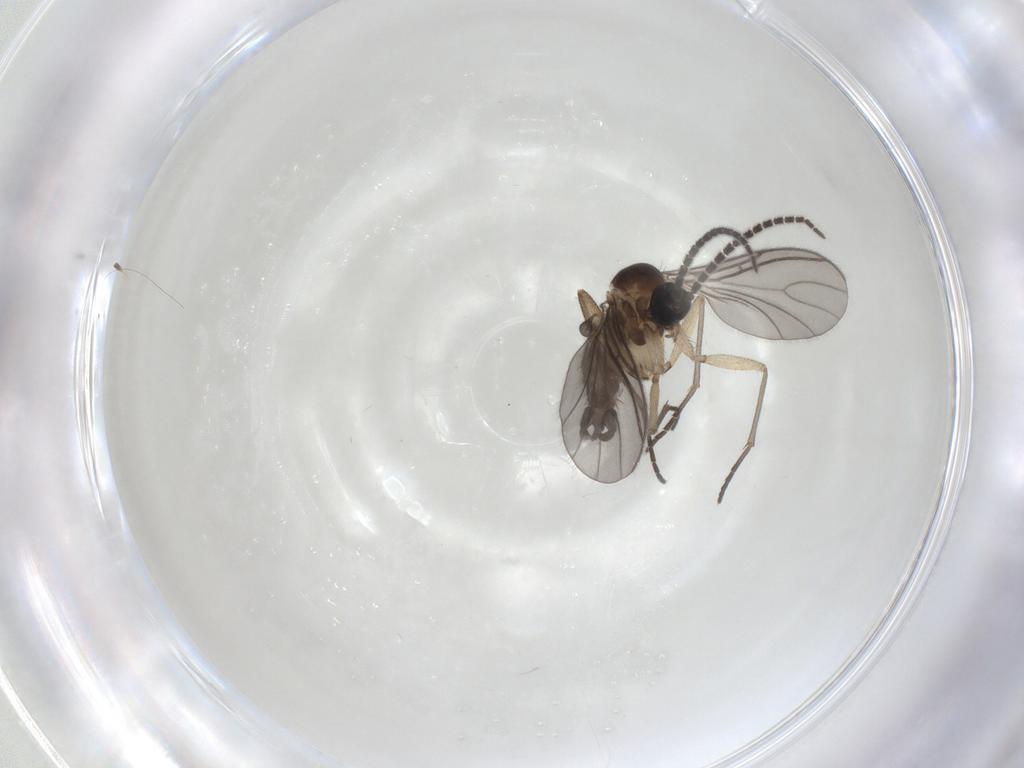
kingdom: Animalia
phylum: Arthropoda
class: Insecta
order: Diptera
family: Sciaridae
